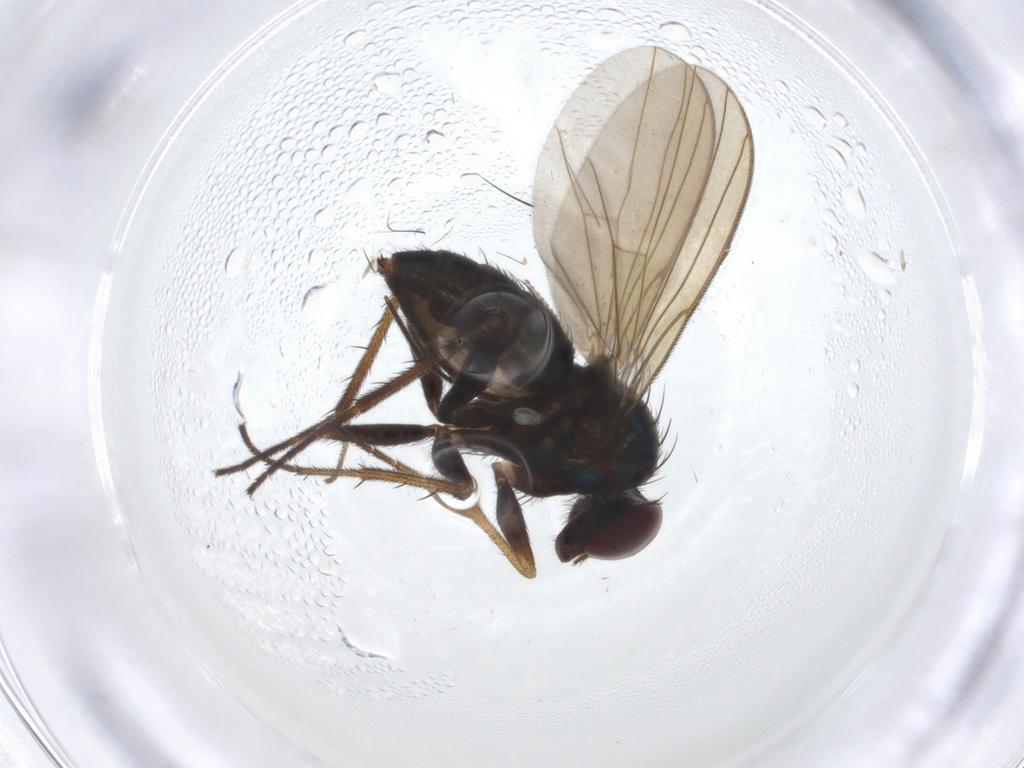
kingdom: Animalia
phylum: Arthropoda
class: Insecta
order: Diptera
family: Dolichopodidae
